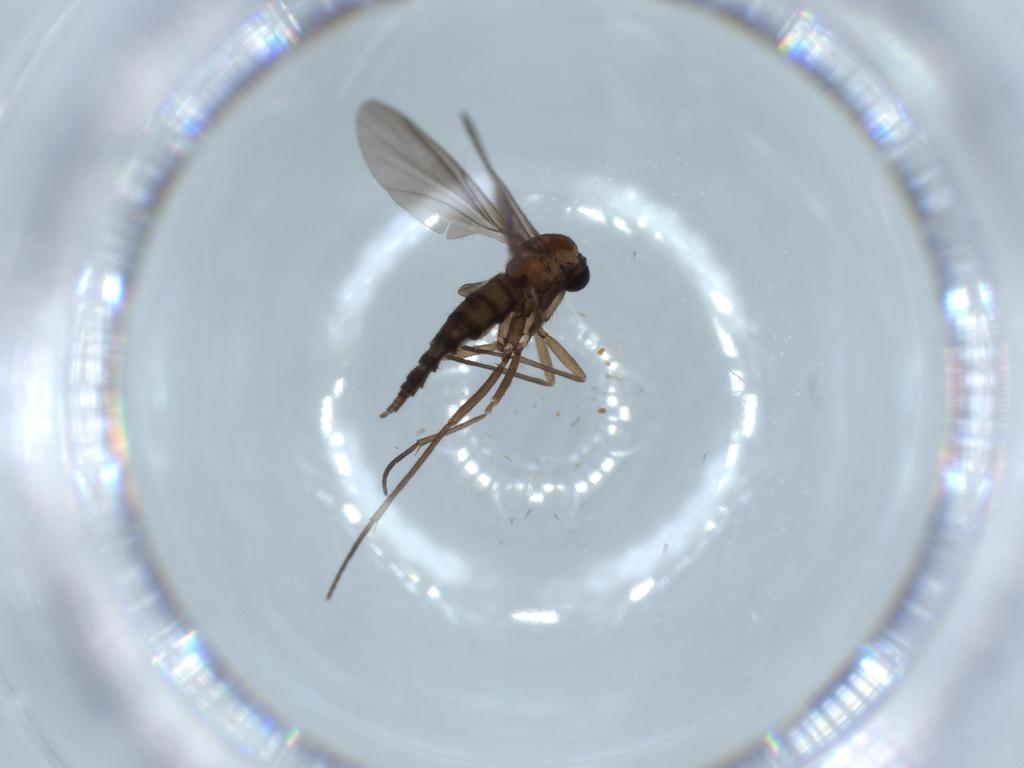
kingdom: Animalia
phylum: Arthropoda
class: Insecta
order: Diptera
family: Sciaridae
